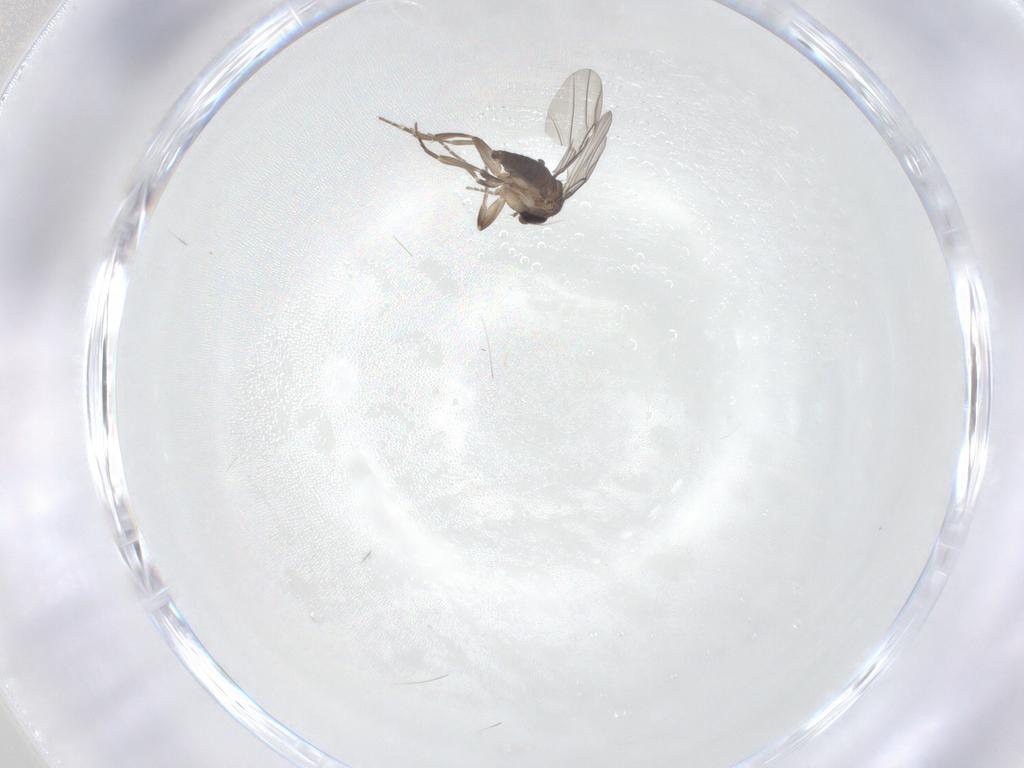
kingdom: Animalia
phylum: Arthropoda
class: Insecta
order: Diptera
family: Phoridae
